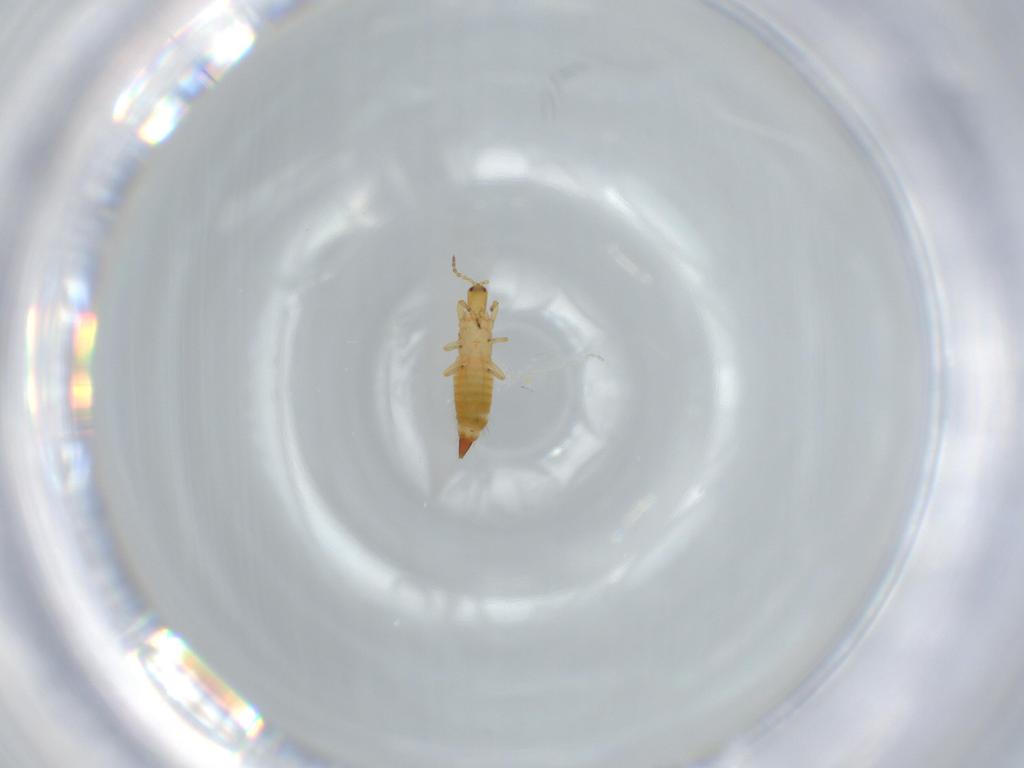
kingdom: Animalia
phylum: Arthropoda
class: Insecta
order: Thysanoptera
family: Phlaeothripidae
